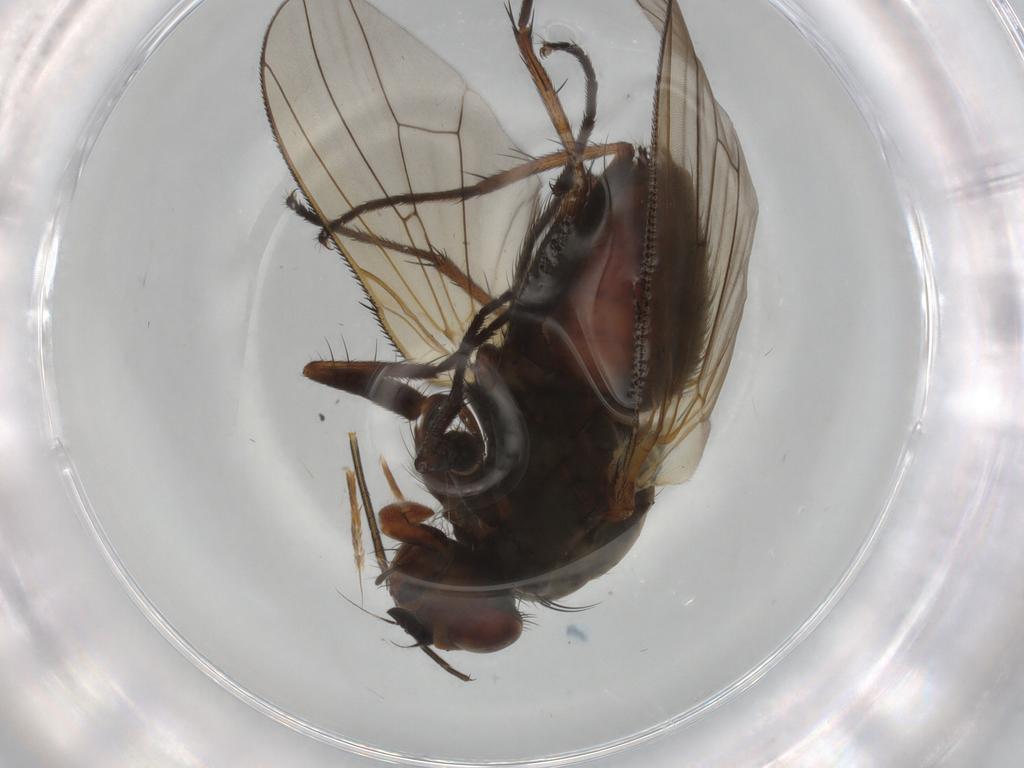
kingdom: Animalia
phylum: Arthropoda
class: Insecta
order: Diptera
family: Anthomyiidae
